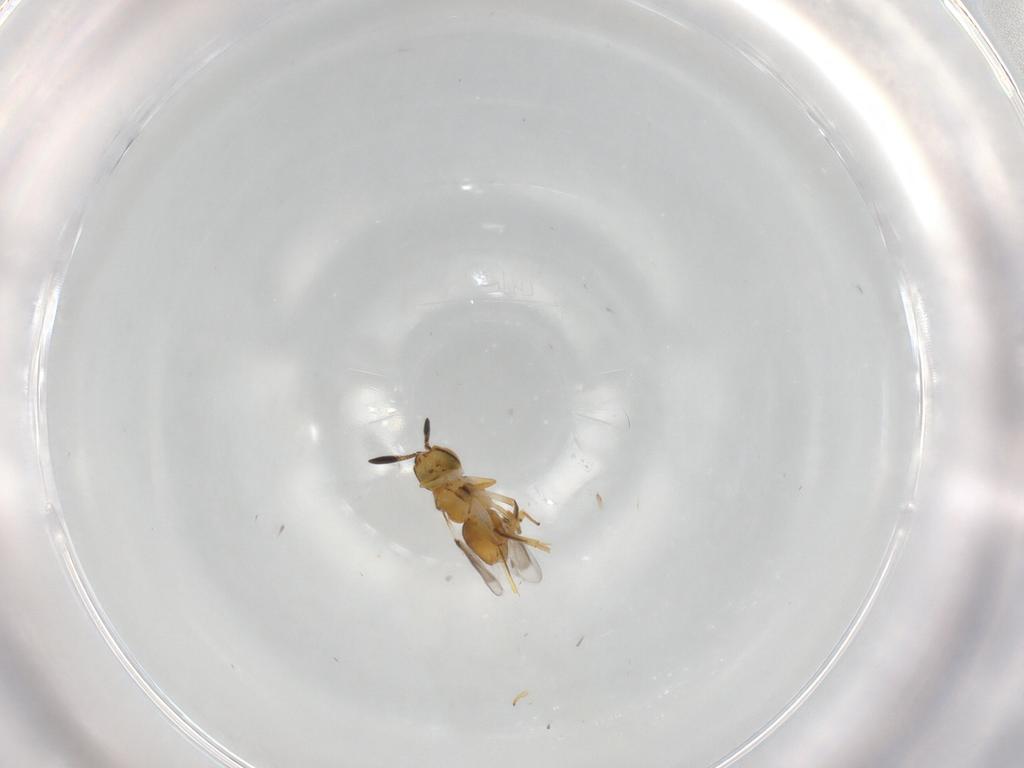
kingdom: Animalia
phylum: Arthropoda
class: Insecta
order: Hymenoptera
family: Encyrtidae
